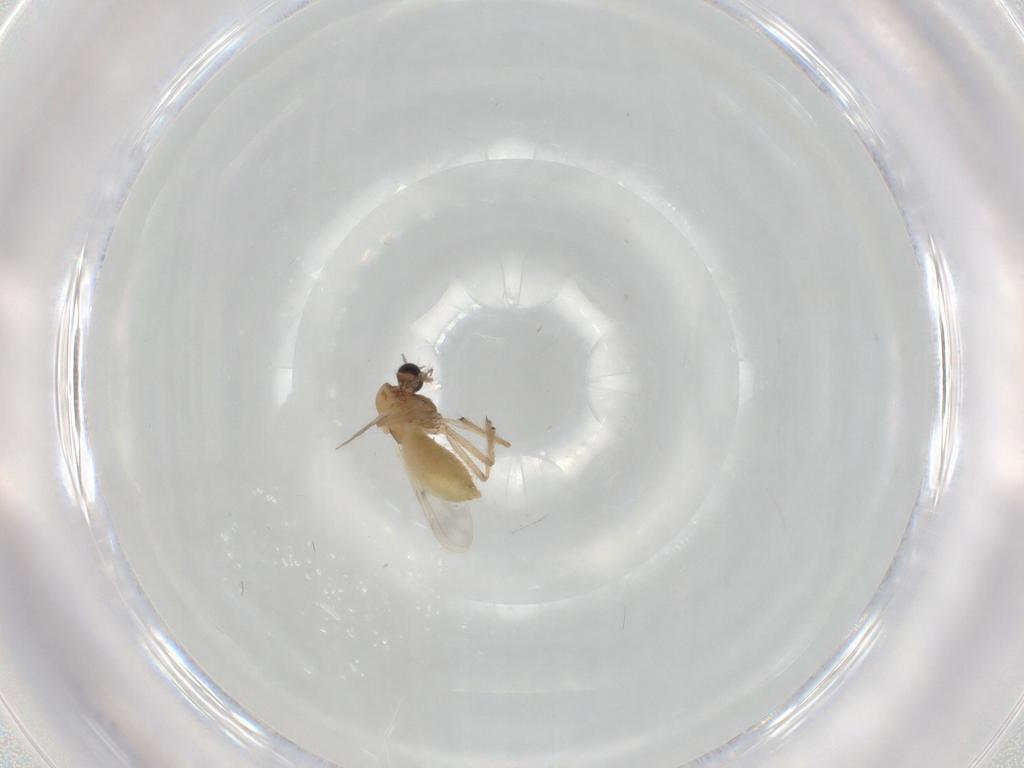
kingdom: Animalia
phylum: Arthropoda
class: Insecta
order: Diptera
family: Chironomidae
